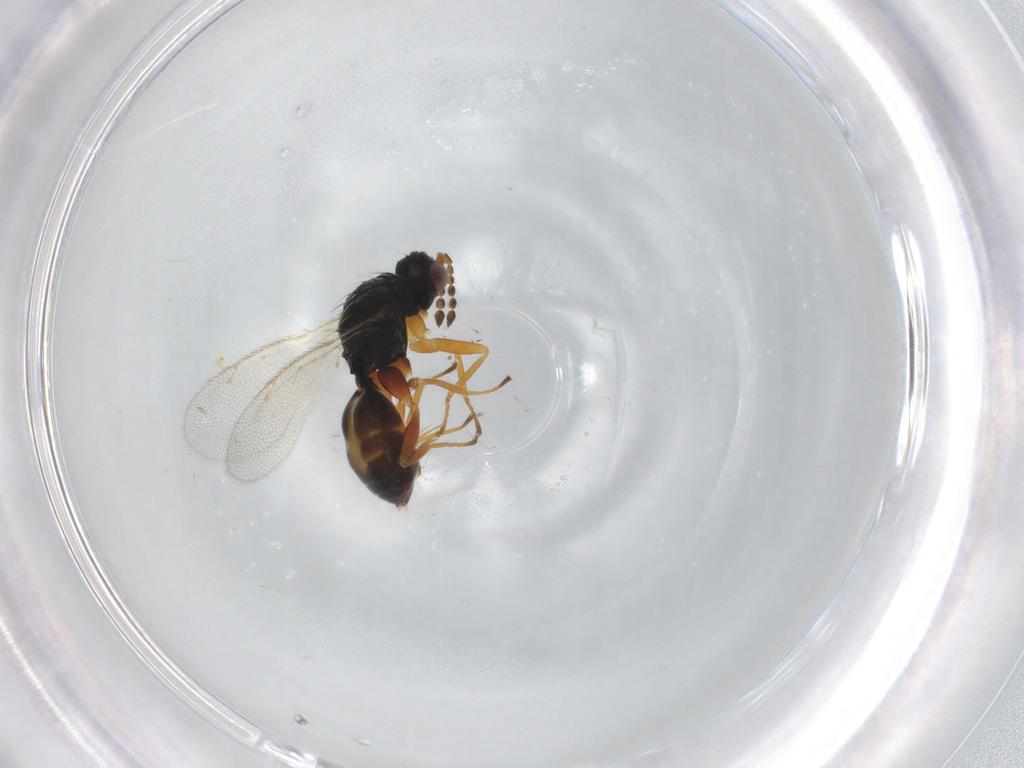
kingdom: Animalia
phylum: Arthropoda
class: Insecta
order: Hymenoptera
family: Eulophidae
